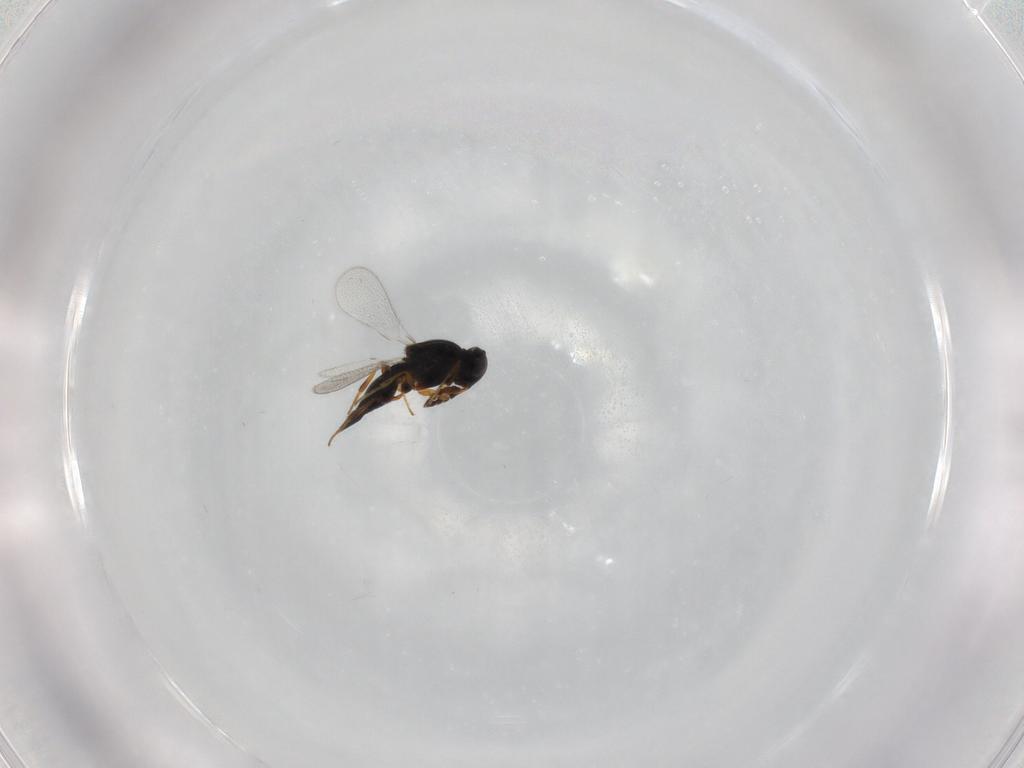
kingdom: Animalia
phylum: Arthropoda
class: Insecta
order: Hymenoptera
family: Platygastridae
